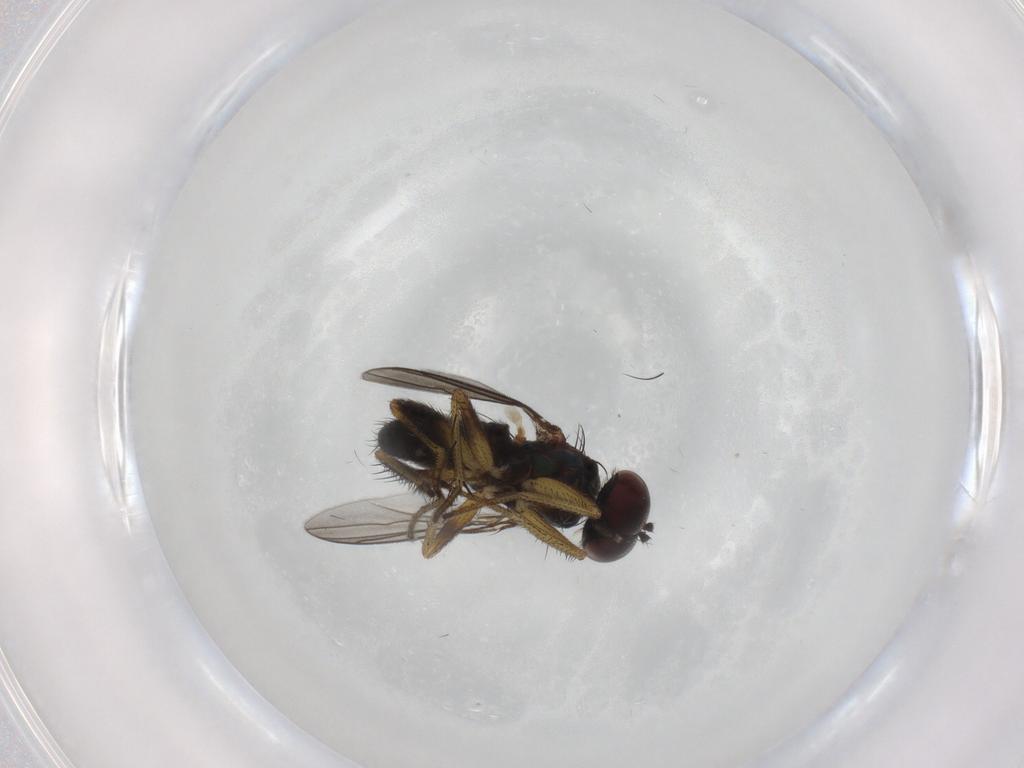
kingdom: Animalia
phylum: Arthropoda
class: Insecta
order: Diptera
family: Dolichopodidae
